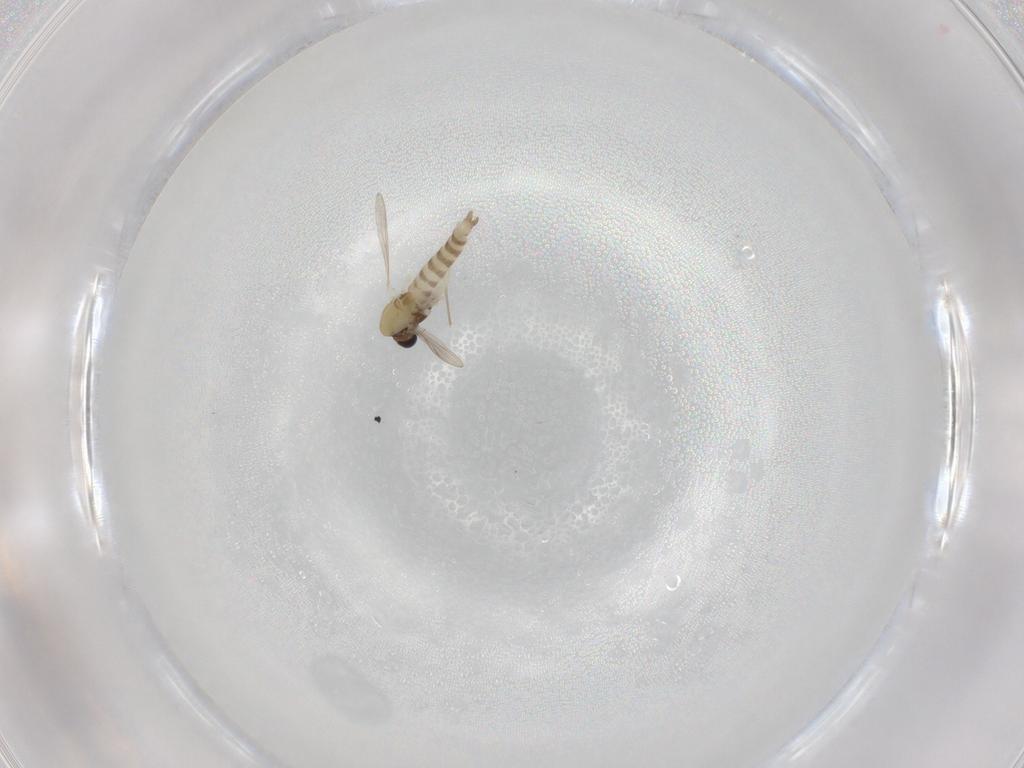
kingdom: Animalia
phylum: Arthropoda
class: Insecta
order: Diptera
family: Chironomidae
